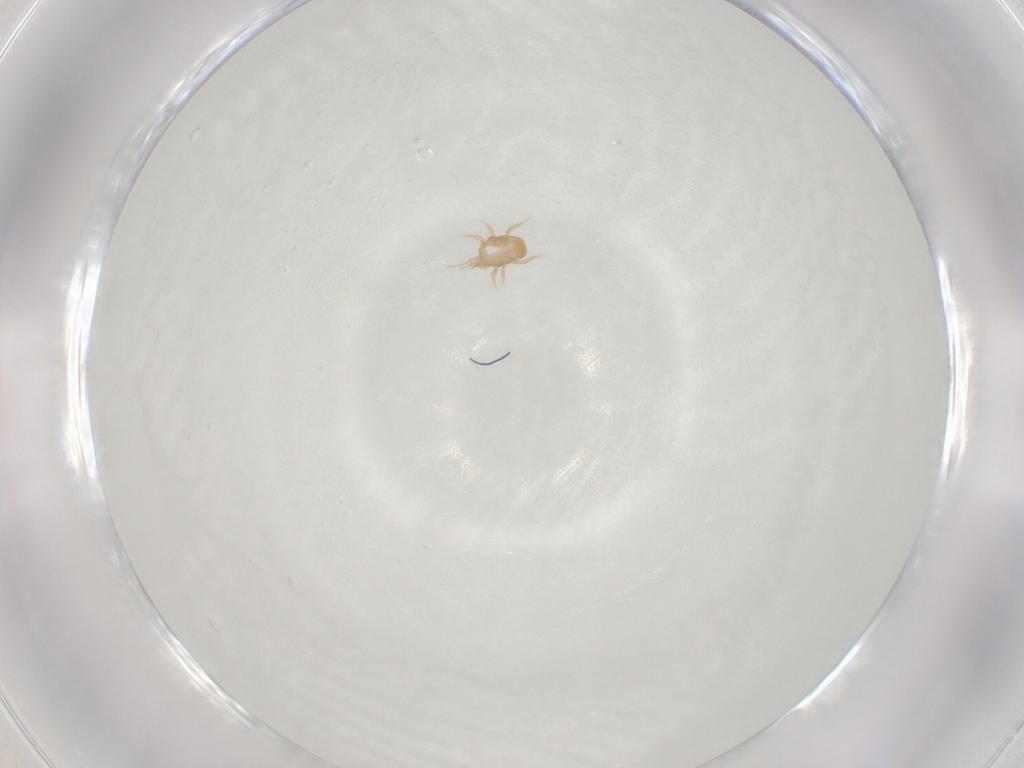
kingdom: Animalia
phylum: Arthropoda
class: Arachnida
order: Mesostigmata
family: Blattisociidae
